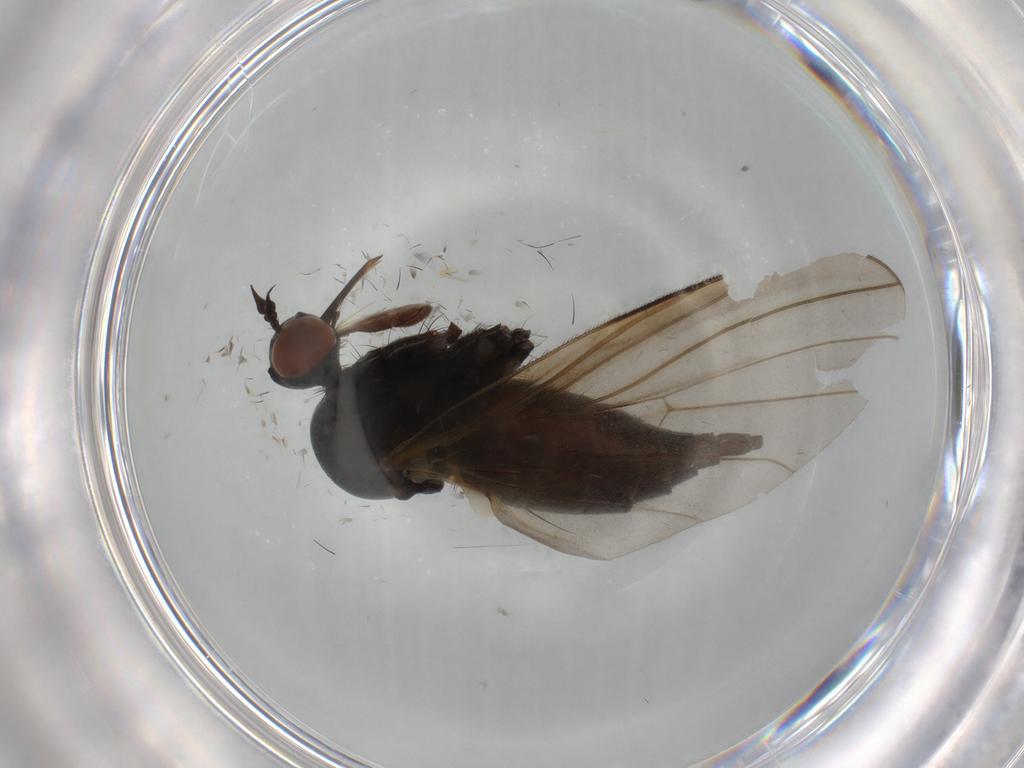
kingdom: Animalia
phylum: Arthropoda
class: Insecta
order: Diptera
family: Empididae
